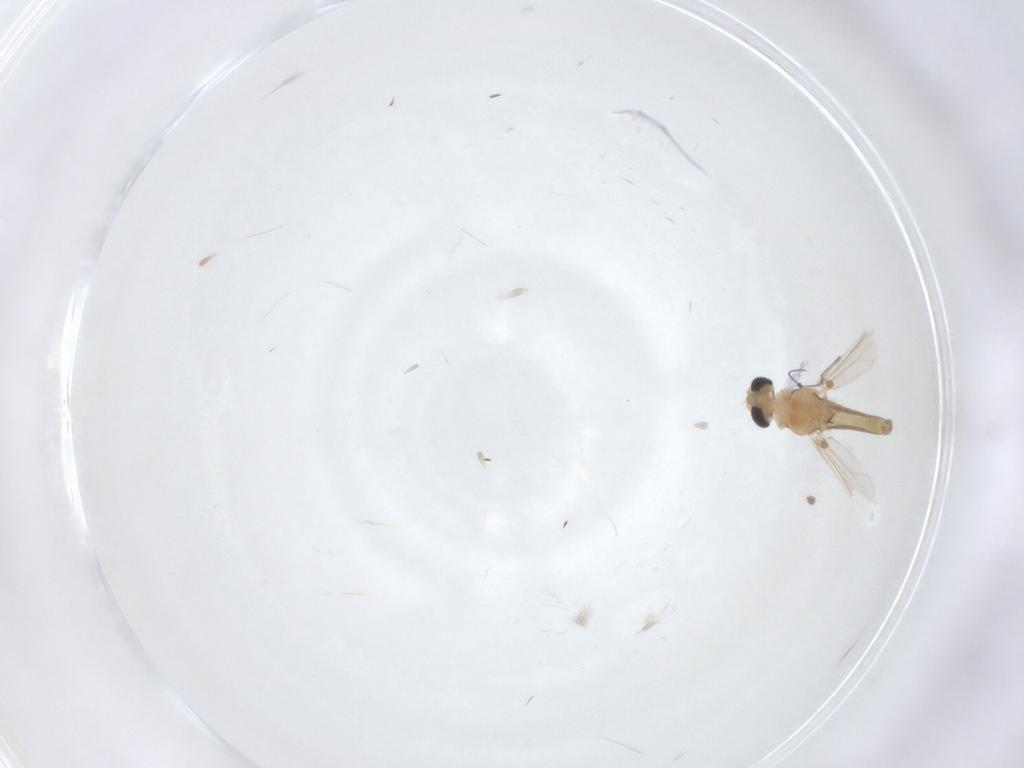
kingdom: Animalia
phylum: Arthropoda
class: Insecta
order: Diptera
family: Chironomidae
